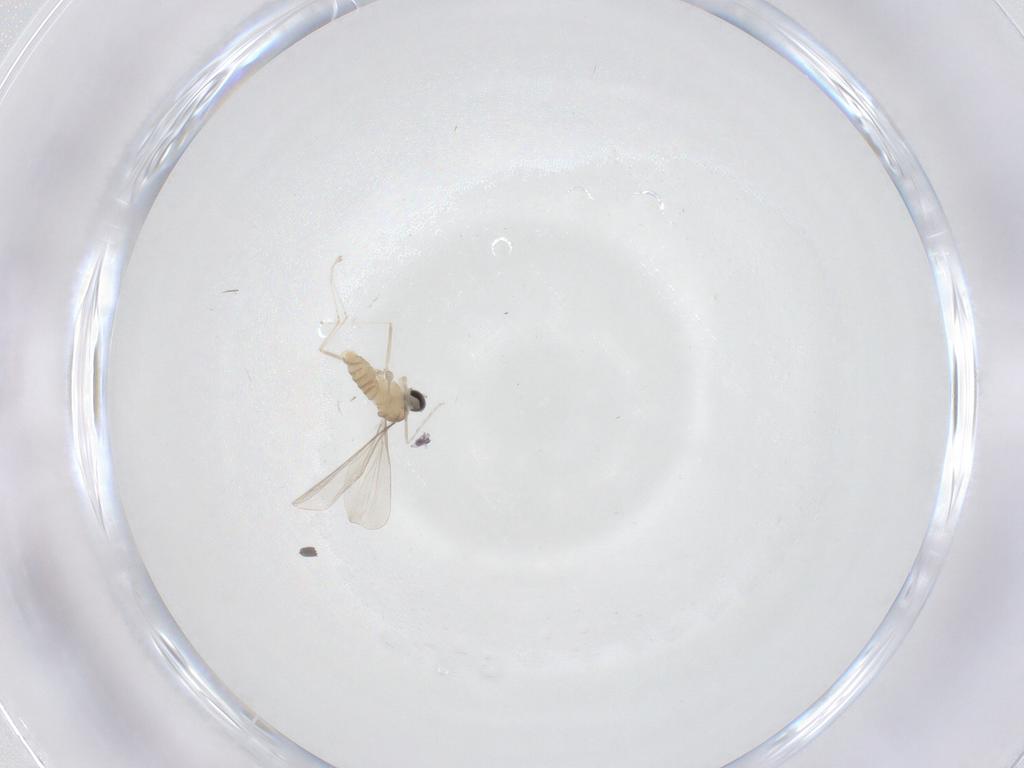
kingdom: Animalia
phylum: Arthropoda
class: Insecta
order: Diptera
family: Cecidomyiidae
